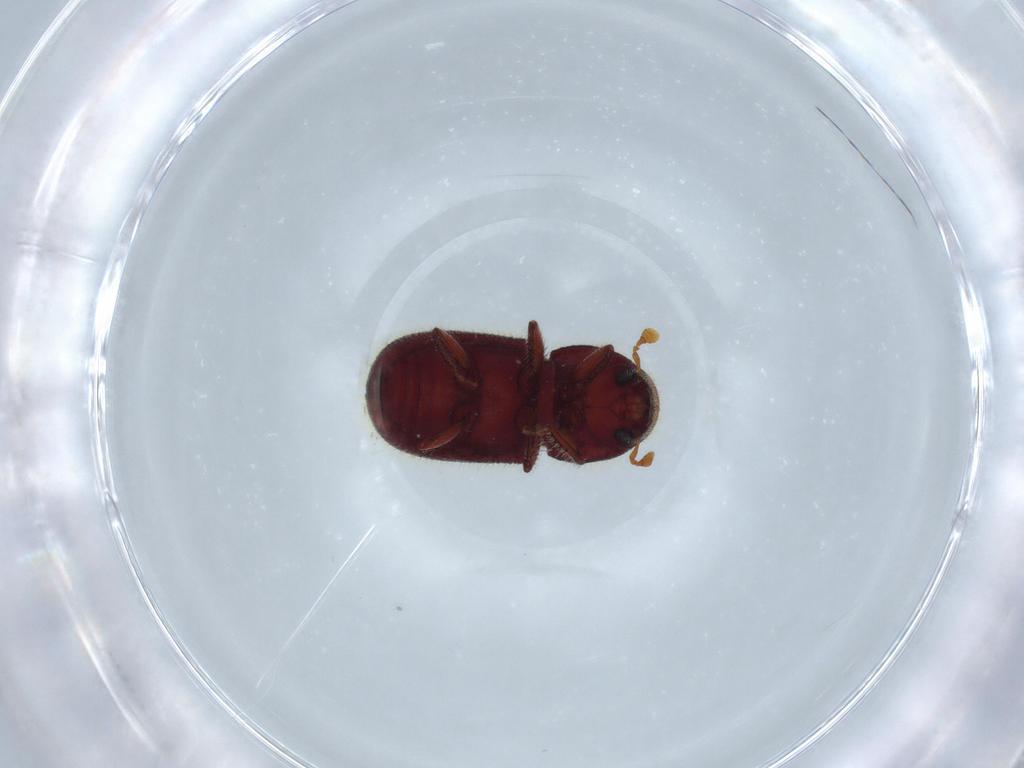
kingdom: Animalia
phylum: Arthropoda
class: Insecta
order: Coleoptera
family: Curculionidae
